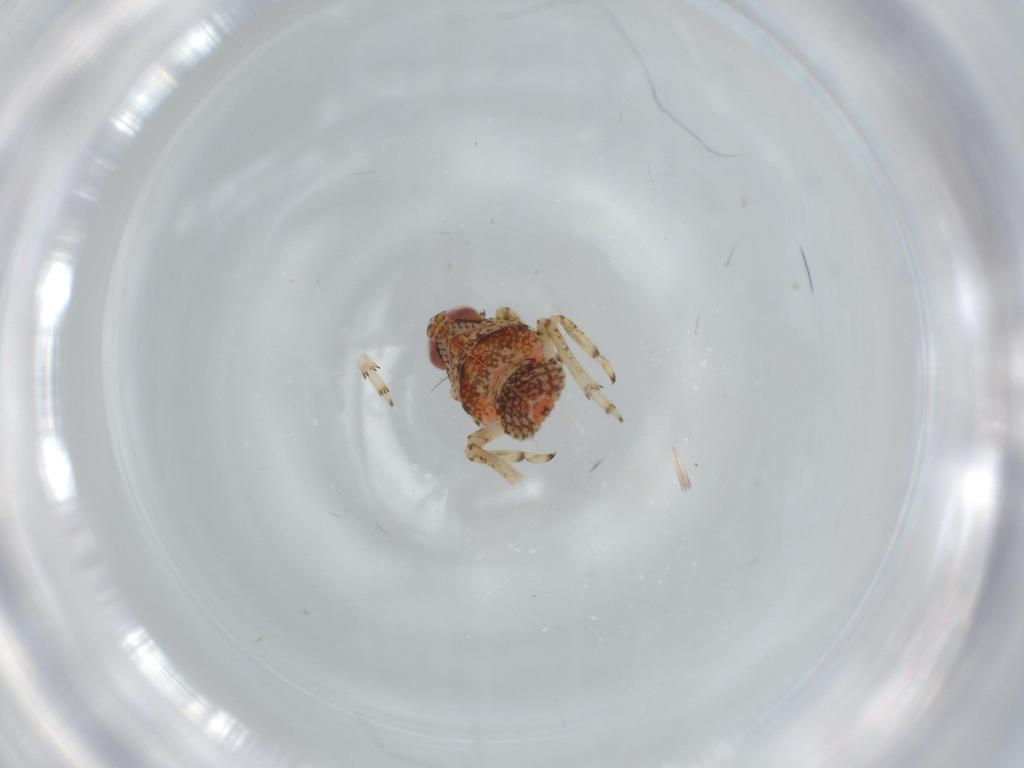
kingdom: Animalia
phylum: Arthropoda
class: Insecta
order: Hemiptera
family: Issidae
